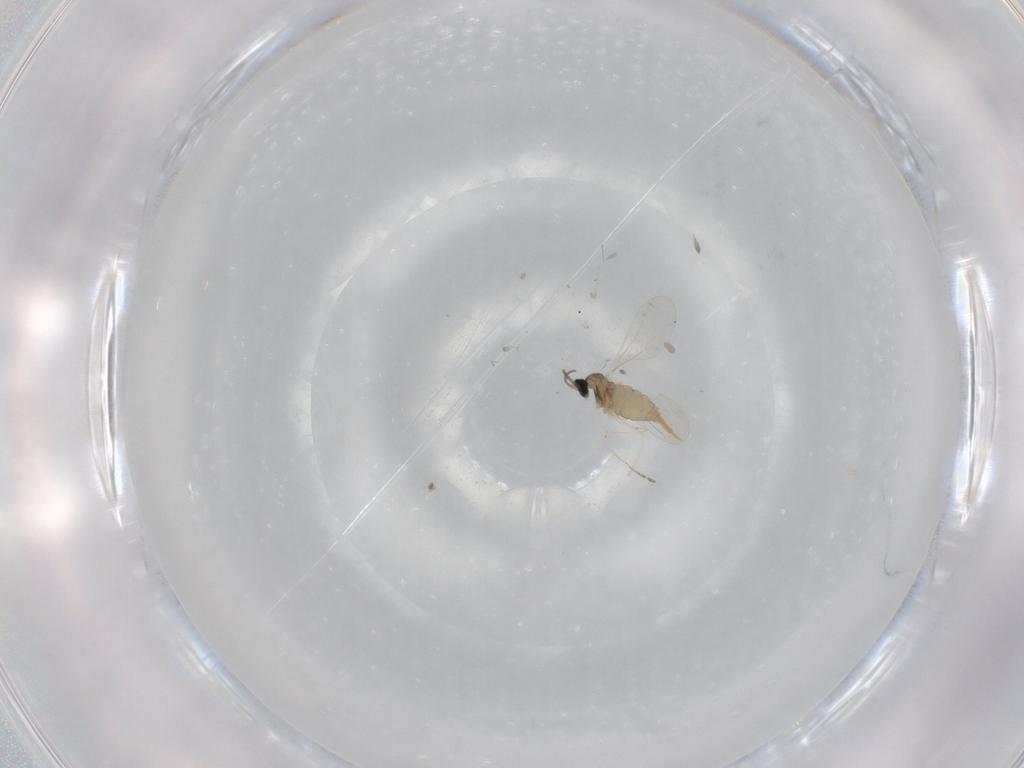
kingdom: Animalia
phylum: Arthropoda
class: Insecta
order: Diptera
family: Cecidomyiidae
